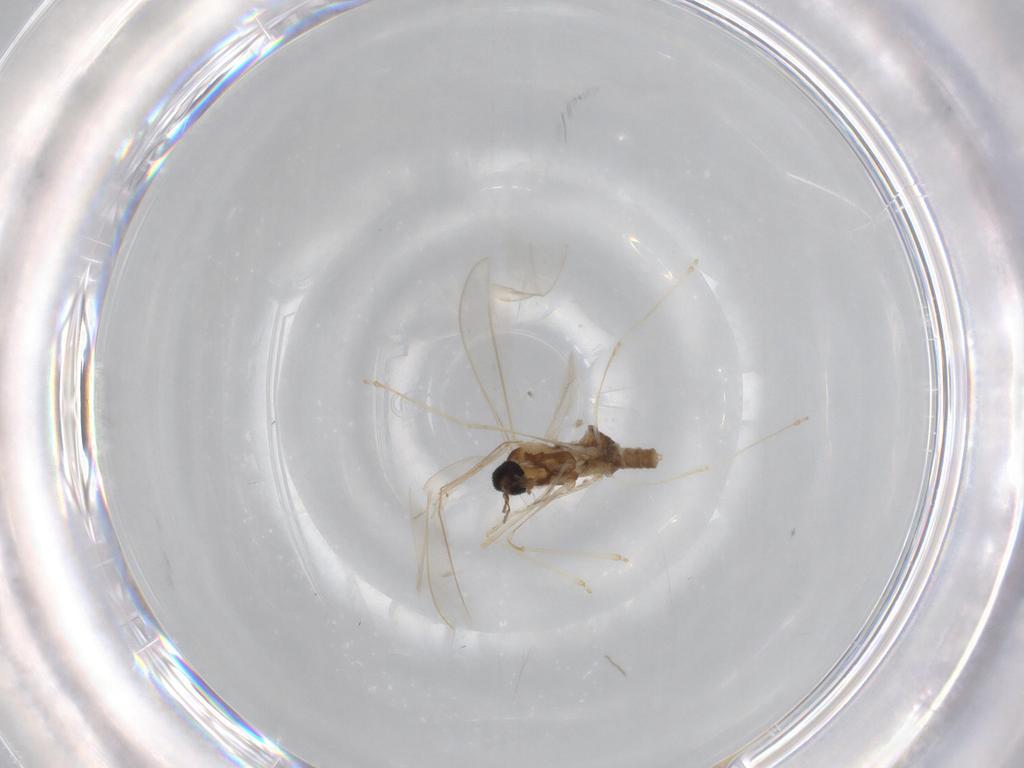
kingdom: Animalia
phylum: Arthropoda
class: Insecta
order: Diptera
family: Cecidomyiidae
